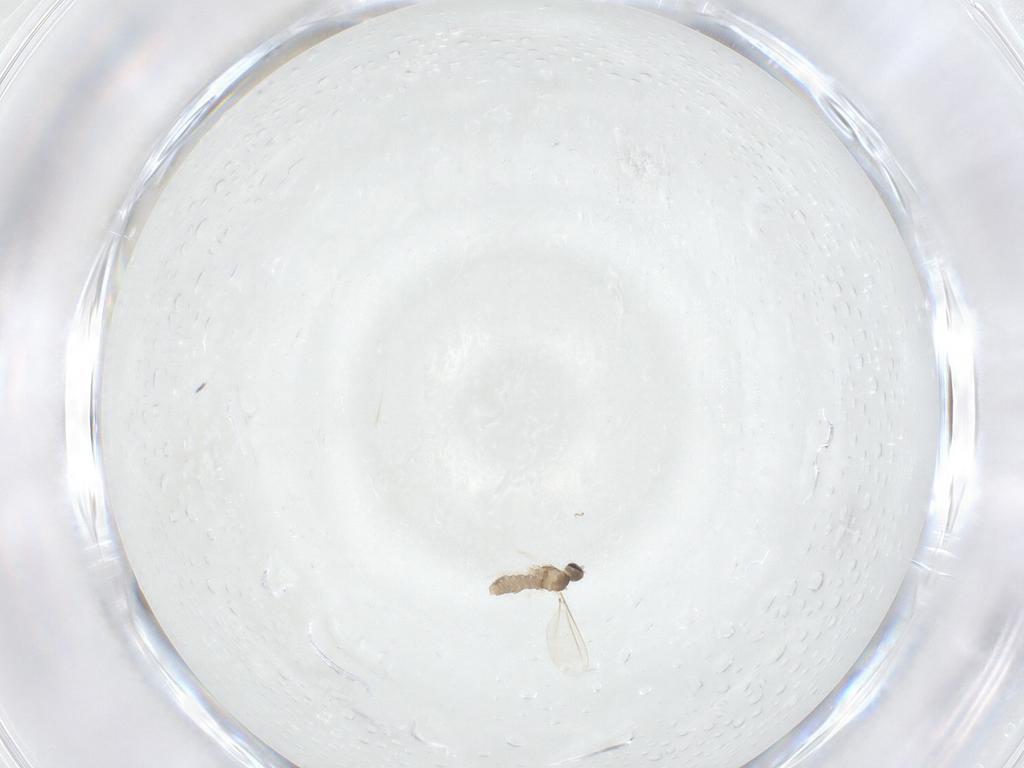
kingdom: Animalia
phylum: Arthropoda
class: Insecta
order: Diptera
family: Cecidomyiidae
